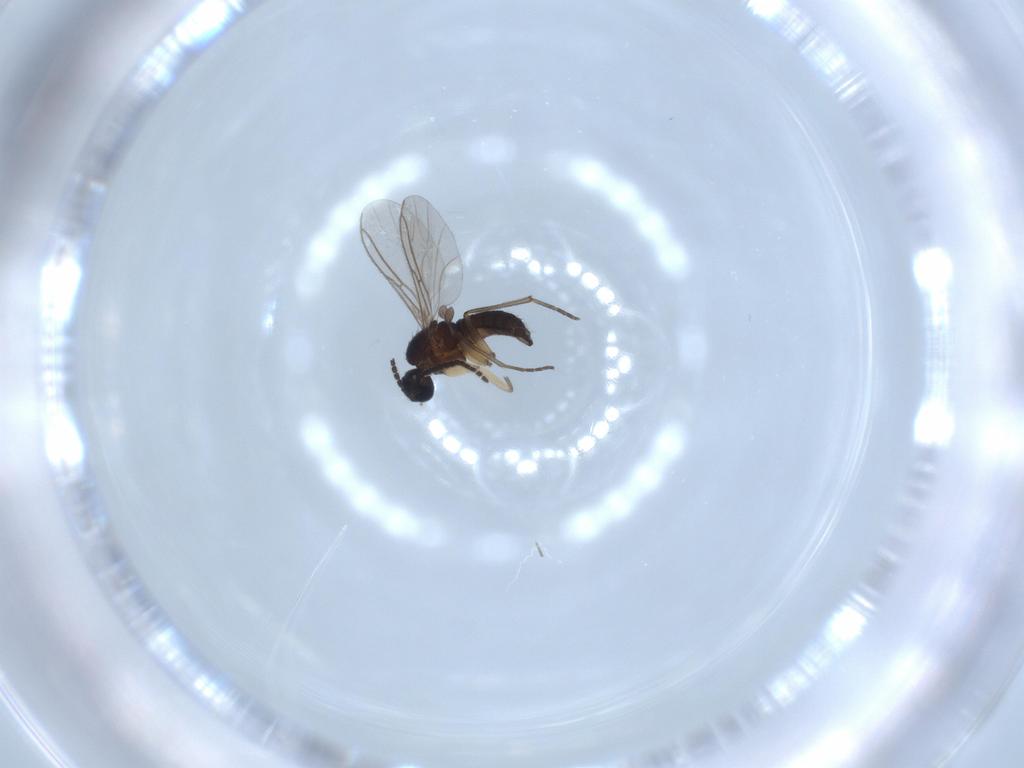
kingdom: Animalia
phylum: Arthropoda
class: Insecta
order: Diptera
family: Sciaridae
